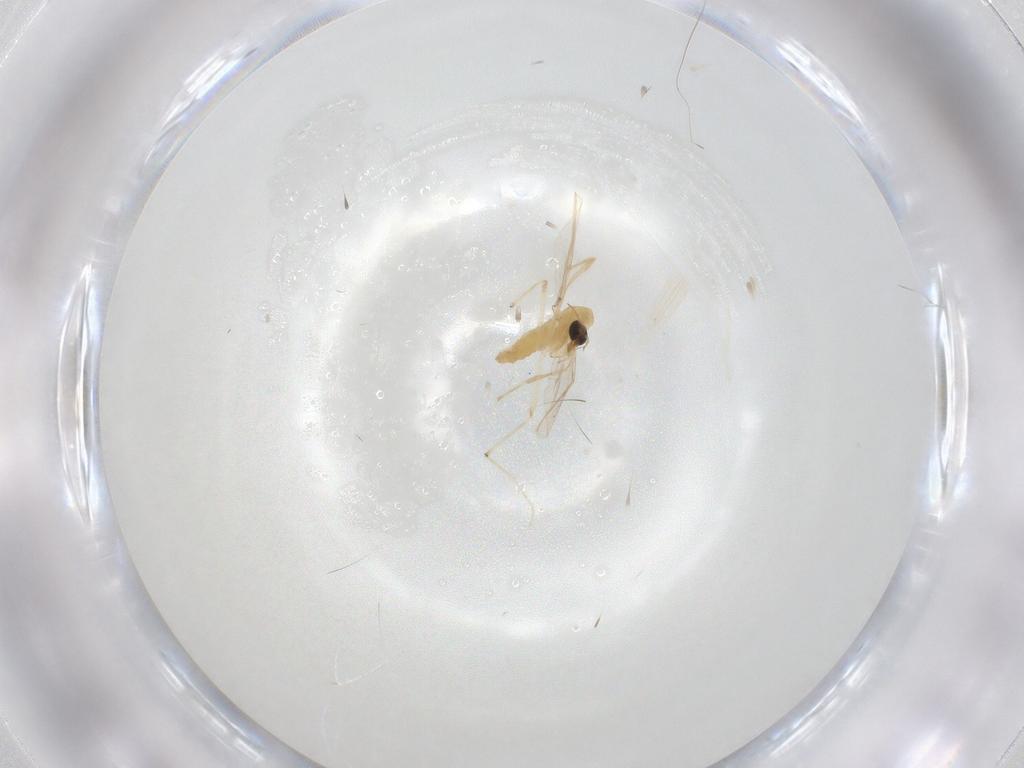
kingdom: Animalia
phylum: Arthropoda
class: Insecta
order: Diptera
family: Chironomidae
